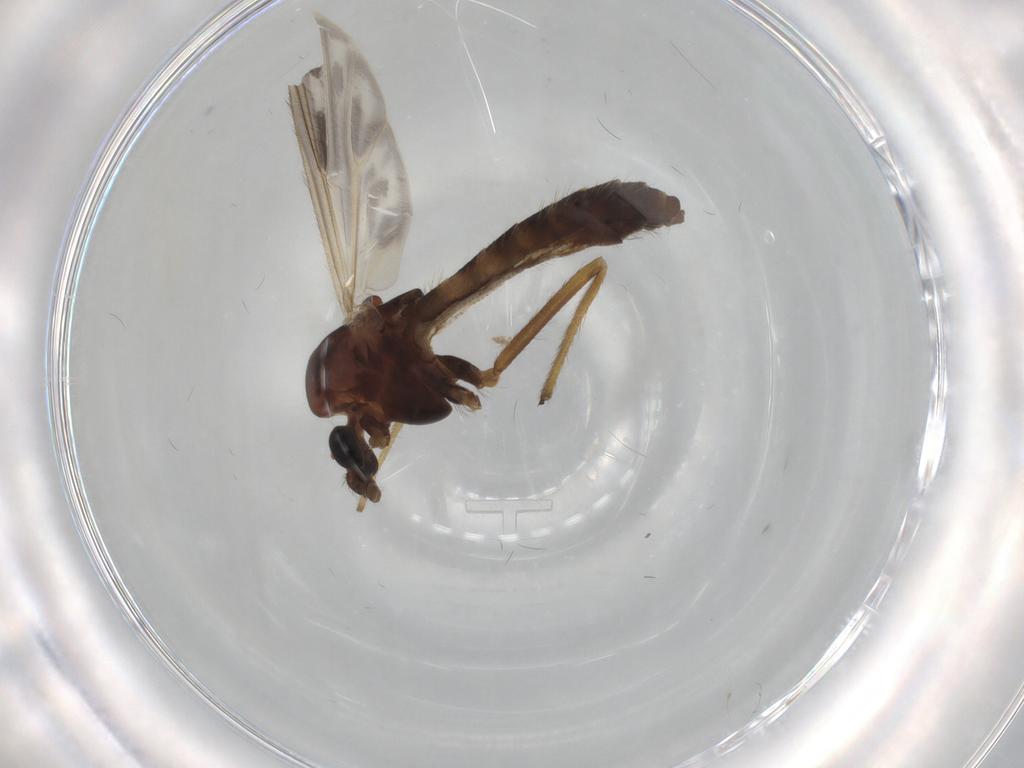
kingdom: Animalia
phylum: Arthropoda
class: Insecta
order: Diptera
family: Chironomidae
